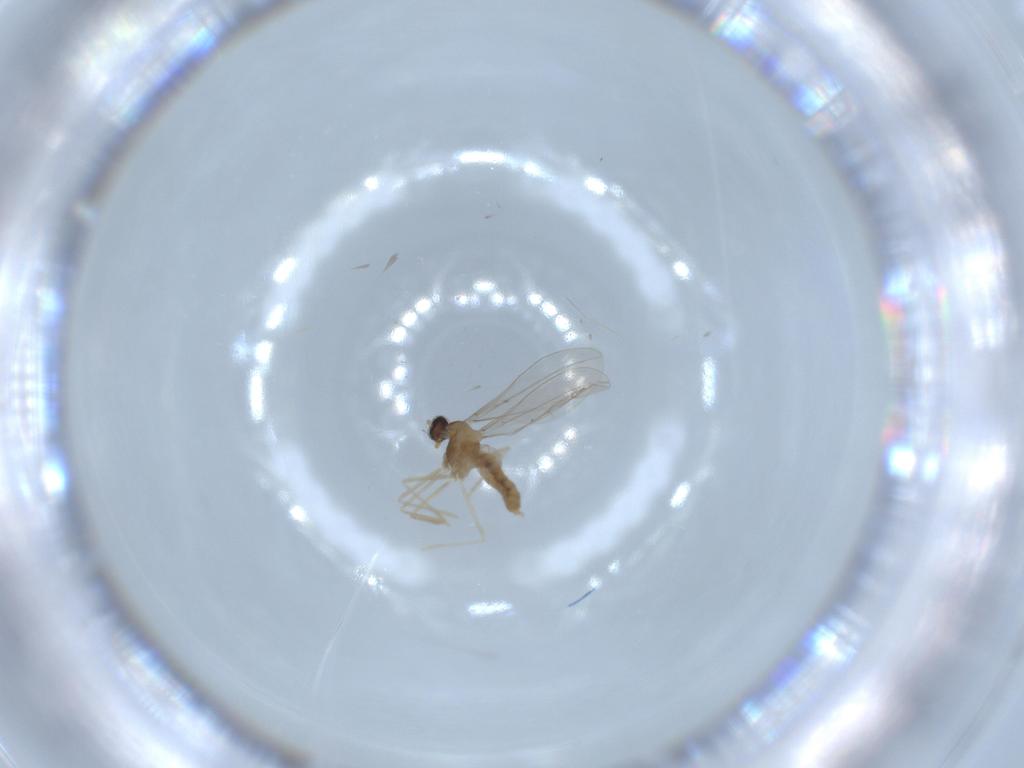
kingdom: Animalia
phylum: Arthropoda
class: Insecta
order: Diptera
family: Cecidomyiidae
